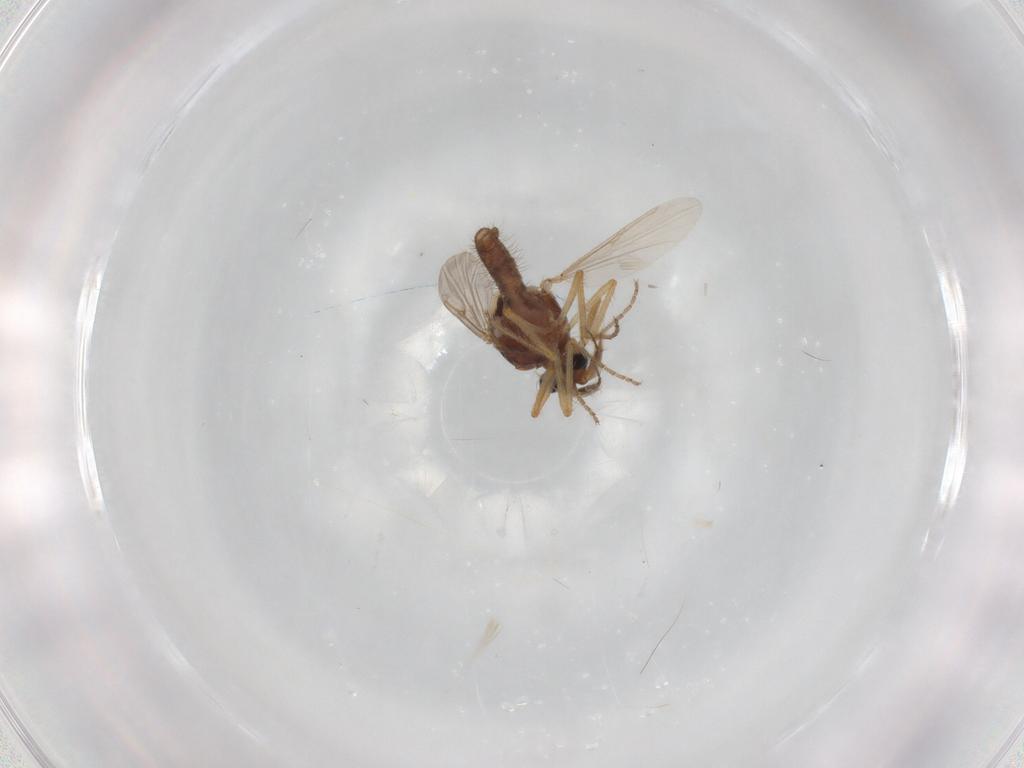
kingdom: Animalia
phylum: Arthropoda
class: Insecta
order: Diptera
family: Ceratopogonidae
